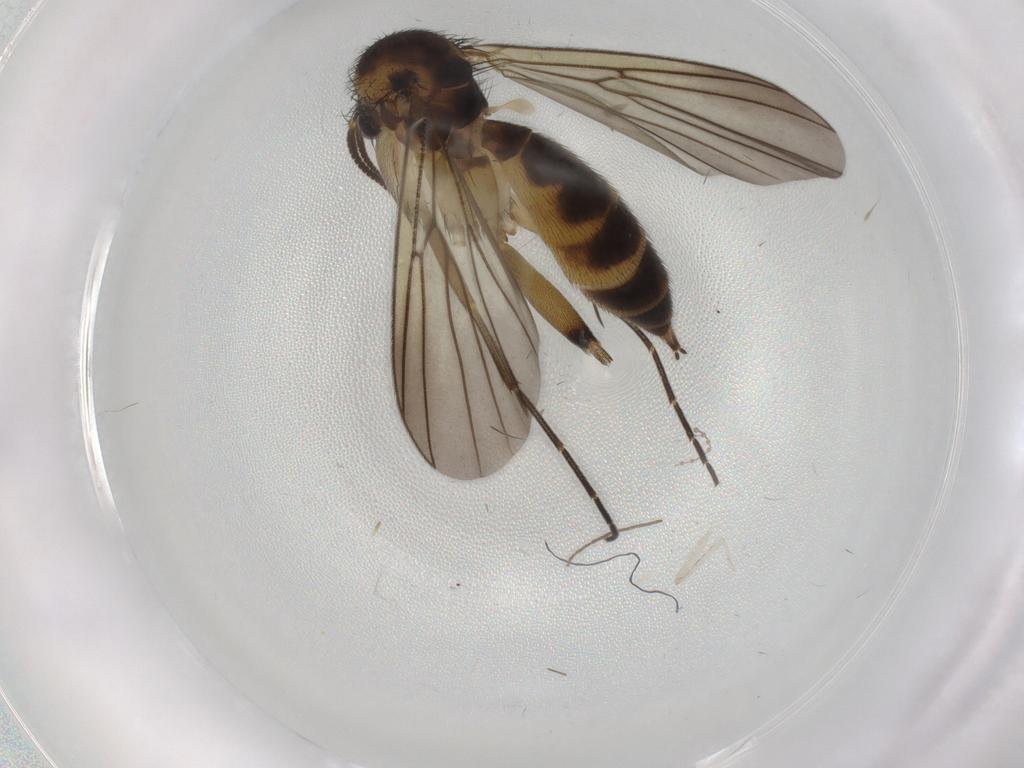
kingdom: Animalia
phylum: Arthropoda
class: Insecta
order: Diptera
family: Mycetophilidae
